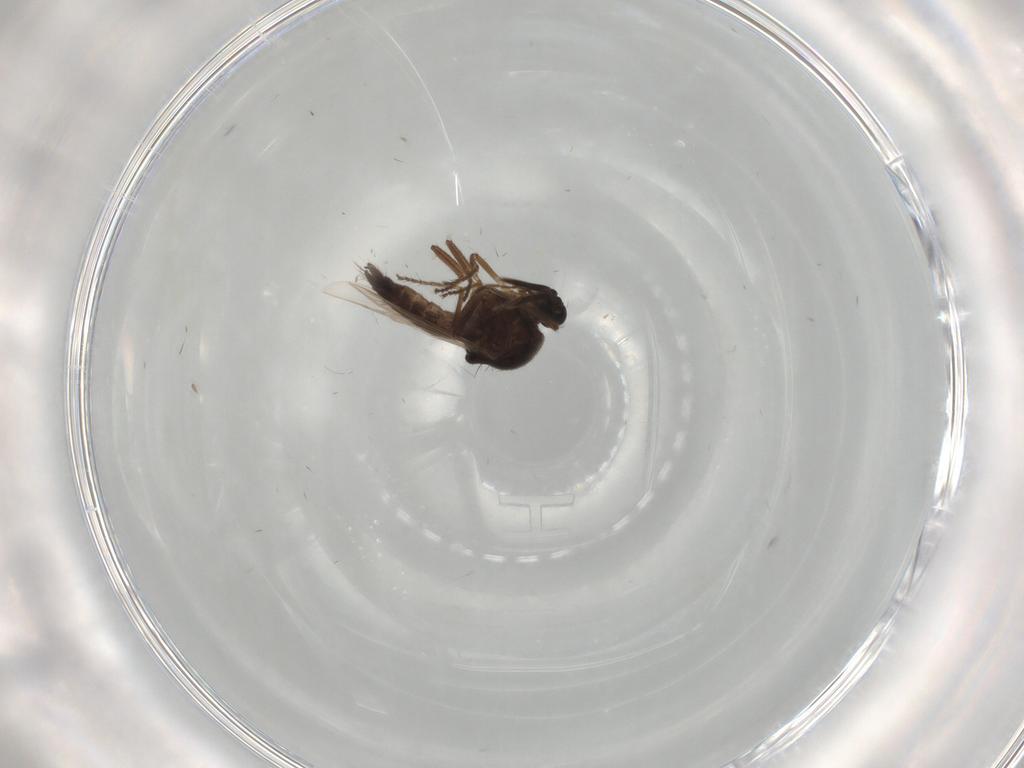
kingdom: Animalia
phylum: Arthropoda
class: Insecta
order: Diptera
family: Ceratopogonidae
